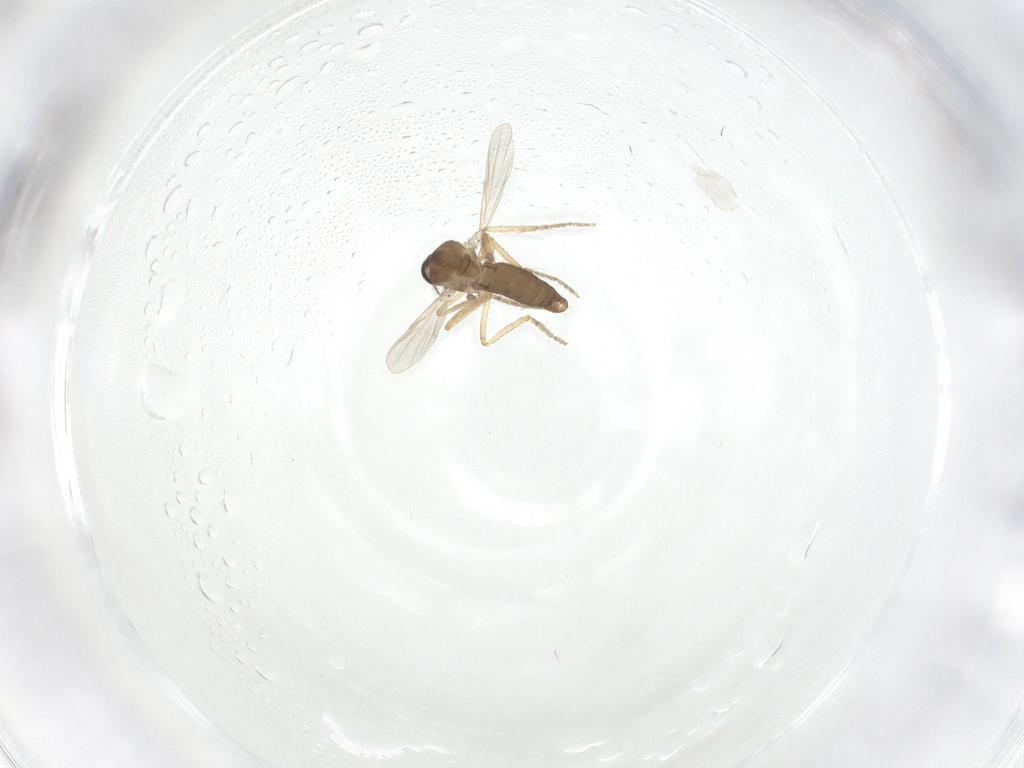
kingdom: Animalia
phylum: Arthropoda
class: Insecta
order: Diptera
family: Ceratopogonidae
